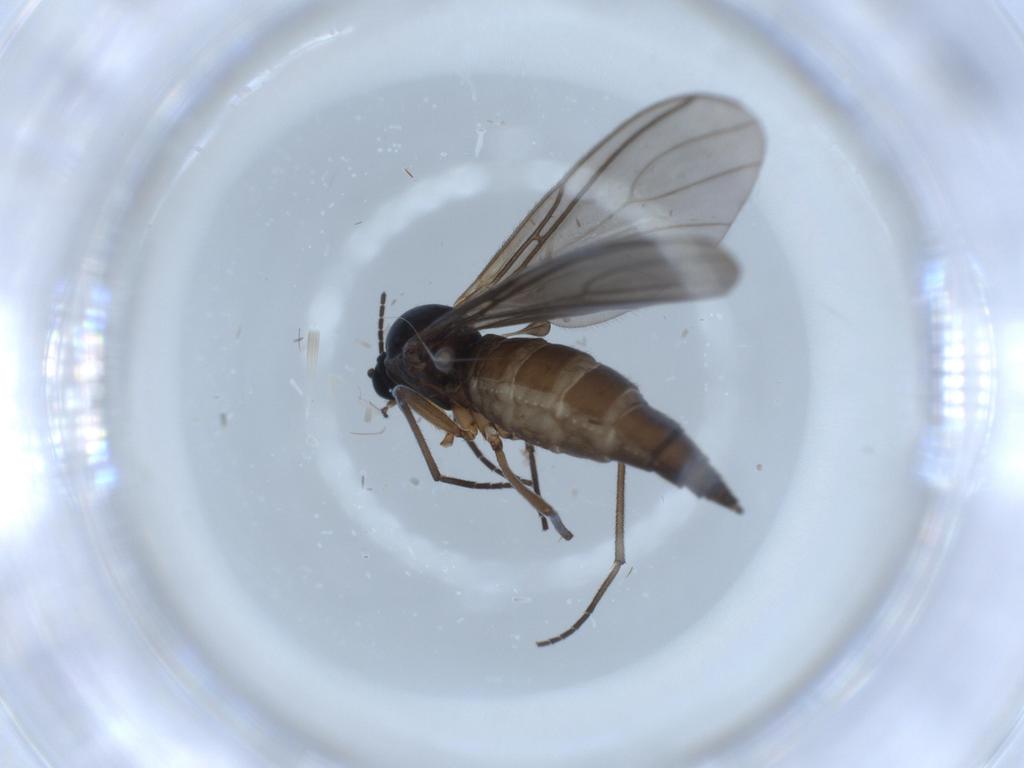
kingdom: Animalia
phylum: Arthropoda
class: Insecta
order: Diptera
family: Sciaridae
